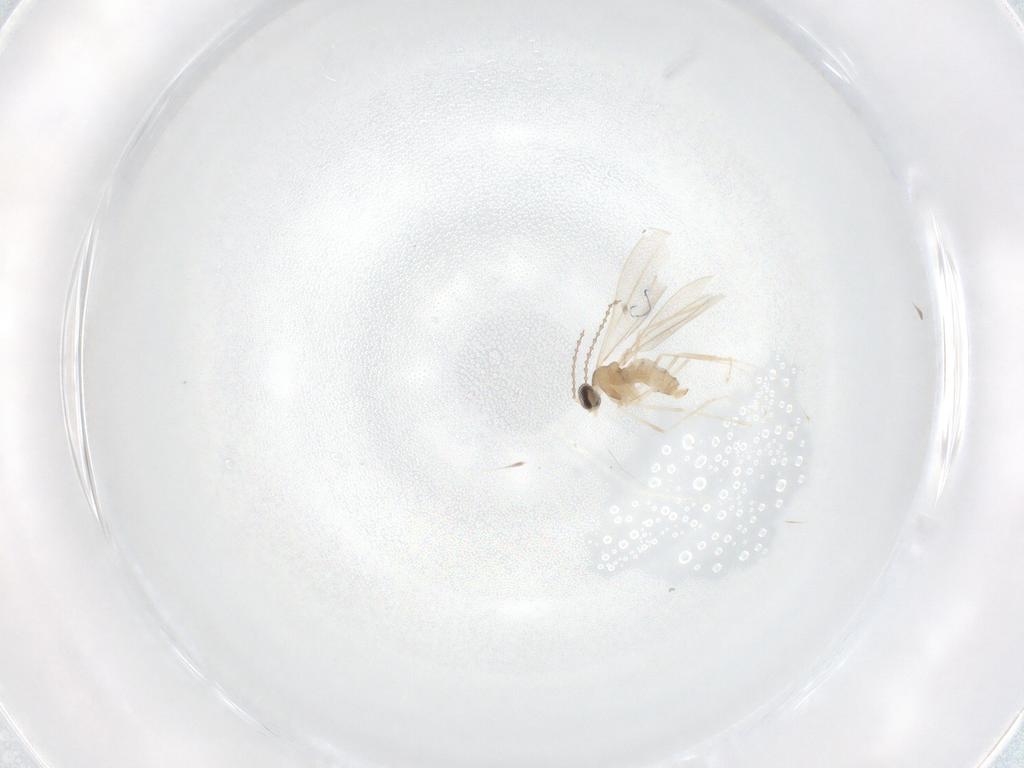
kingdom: Animalia
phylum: Arthropoda
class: Insecta
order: Diptera
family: Cecidomyiidae
